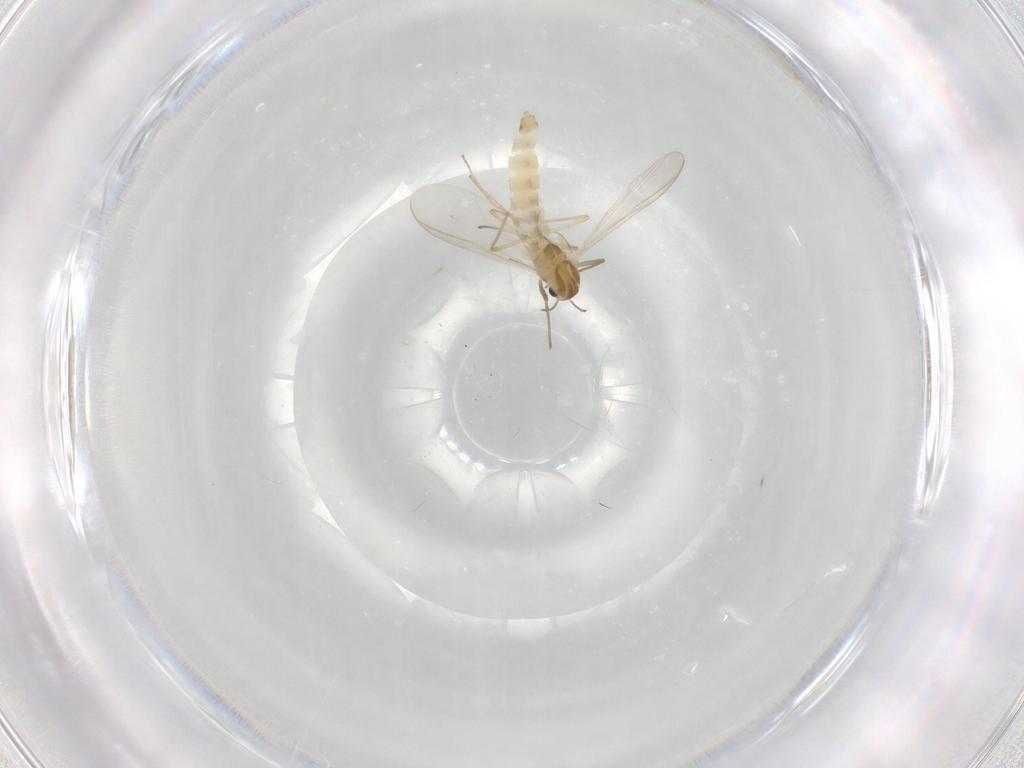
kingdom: Animalia
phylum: Arthropoda
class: Insecta
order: Diptera
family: Chironomidae
